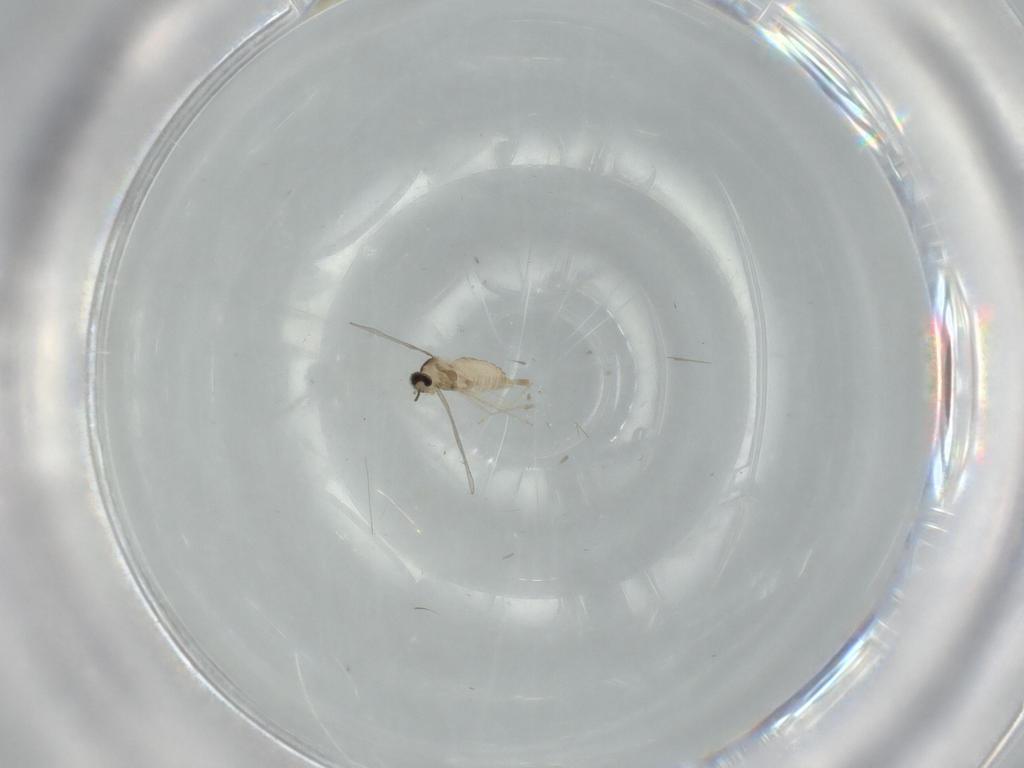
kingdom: Animalia
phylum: Arthropoda
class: Insecta
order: Diptera
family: Cecidomyiidae
